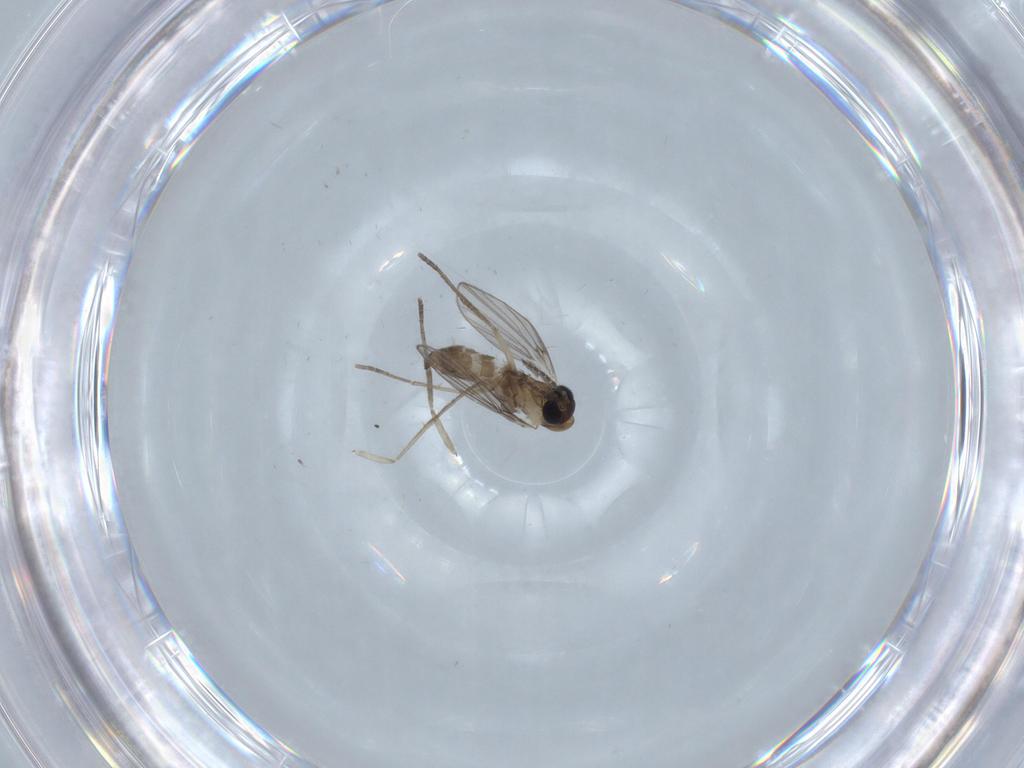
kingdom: Animalia
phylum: Arthropoda
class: Insecta
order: Diptera
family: Psychodidae
